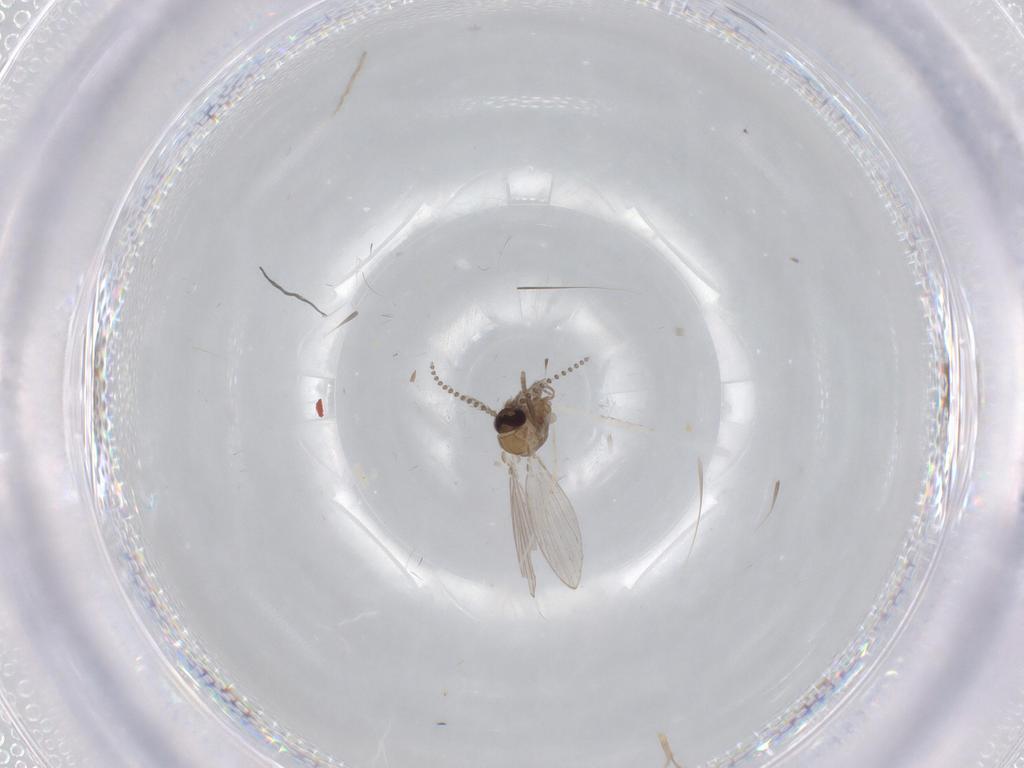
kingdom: Animalia
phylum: Arthropoda
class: Insecta
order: Diptera
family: Cecidomyiidae
